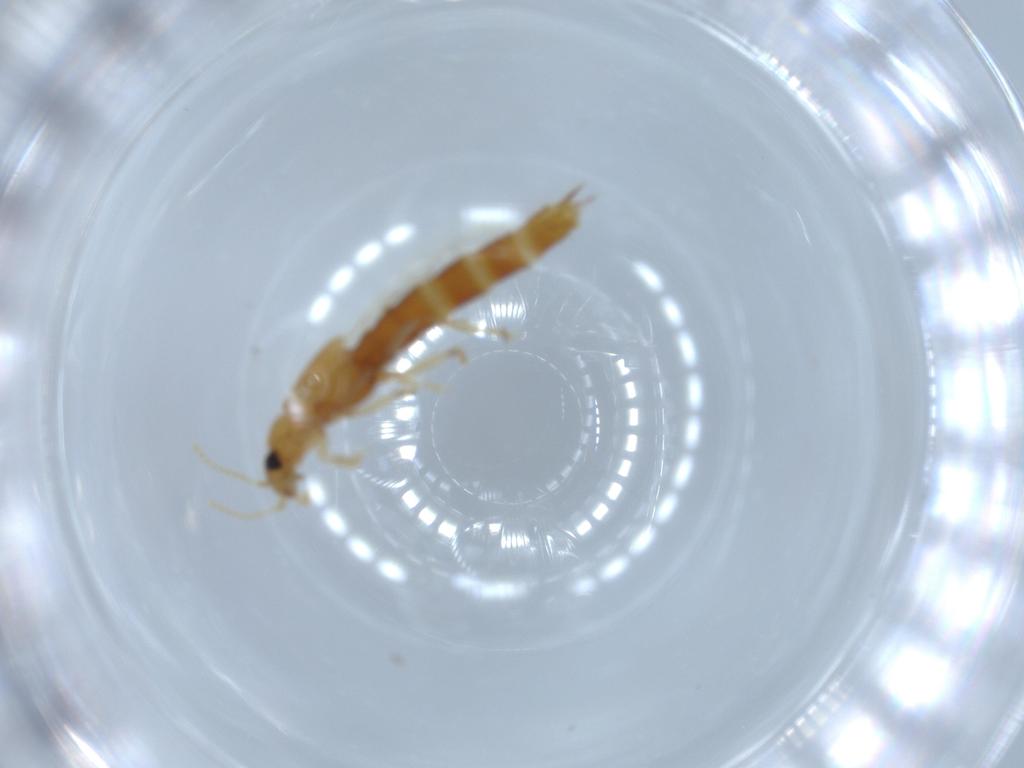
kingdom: Animalia
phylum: Arthropoda
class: Insecta
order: Coleoptera
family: Staphylinidae
